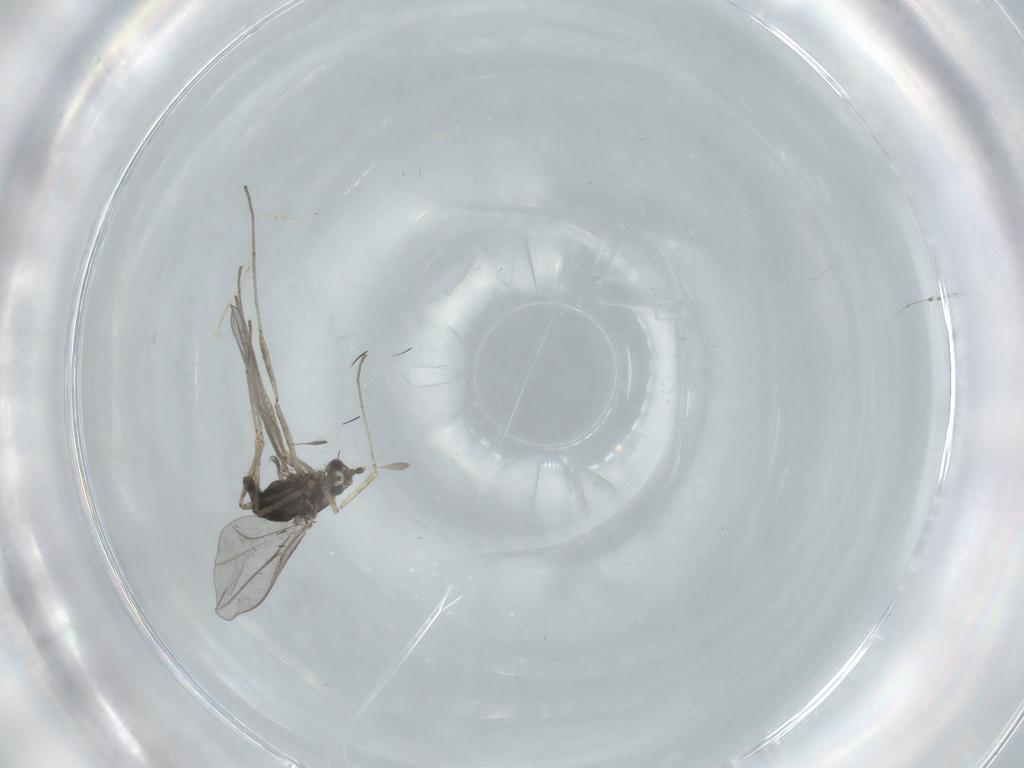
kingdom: Animalia
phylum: Arthropoda
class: Insecta
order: Diptera
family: Cecidomyiidae
